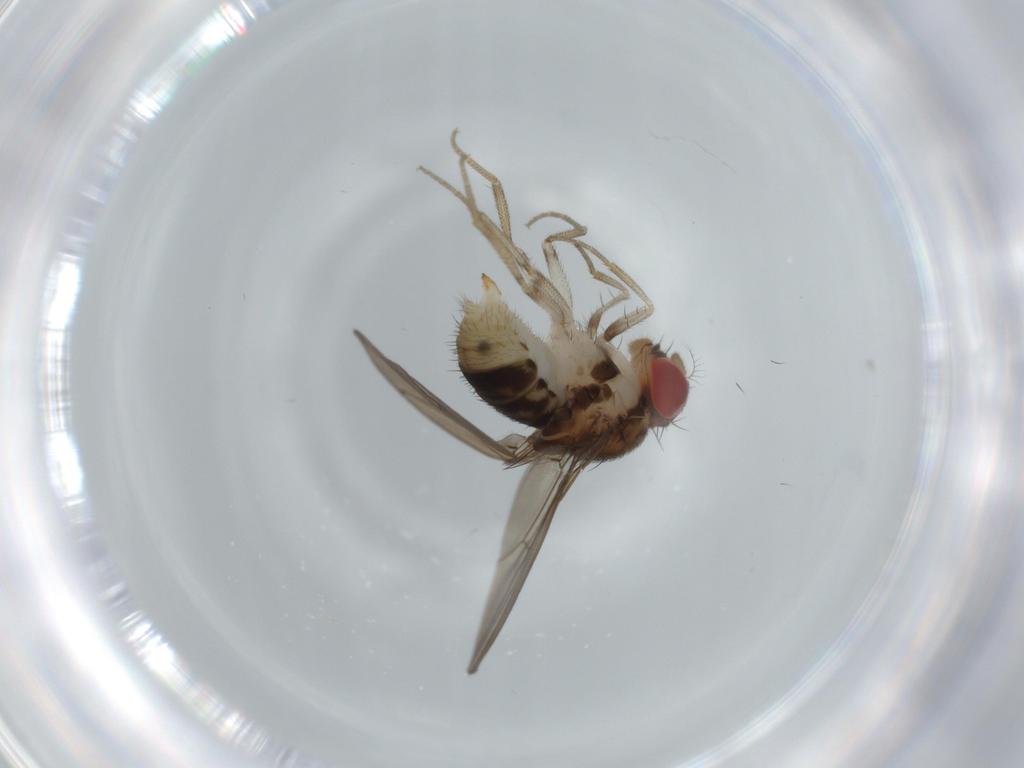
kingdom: Animalia
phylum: Arthropoda
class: Insecta
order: Diptera
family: Drosophilidae
